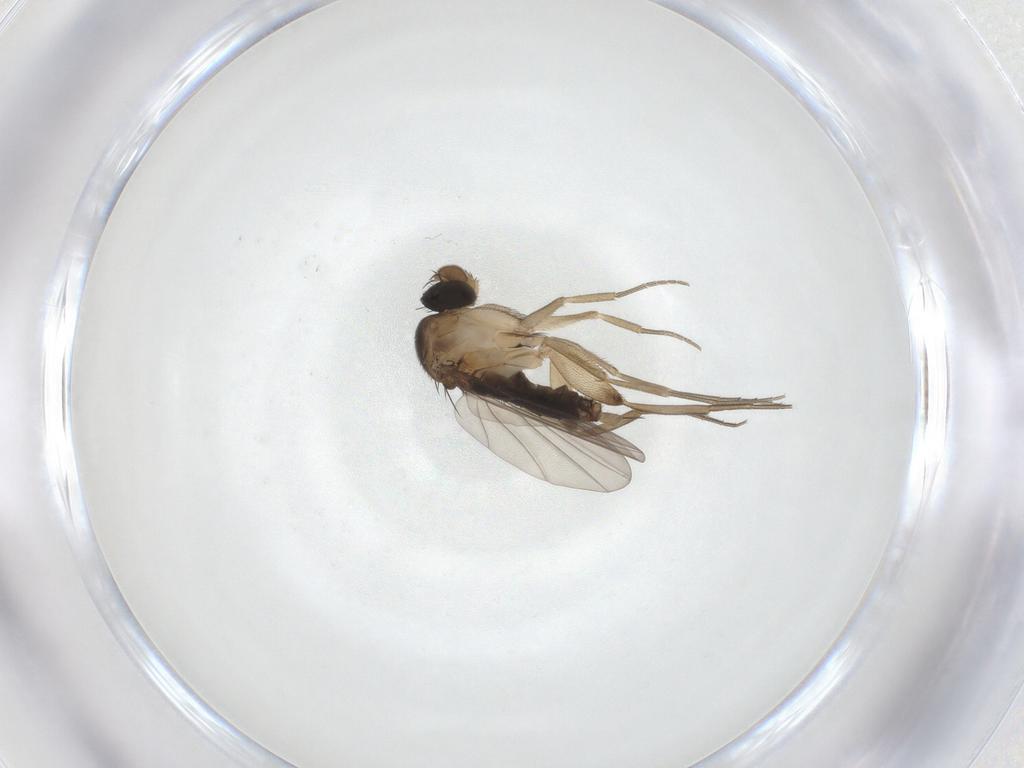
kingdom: Animalia
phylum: Arthropoda
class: Insecta
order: Diptera
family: Phoridae
